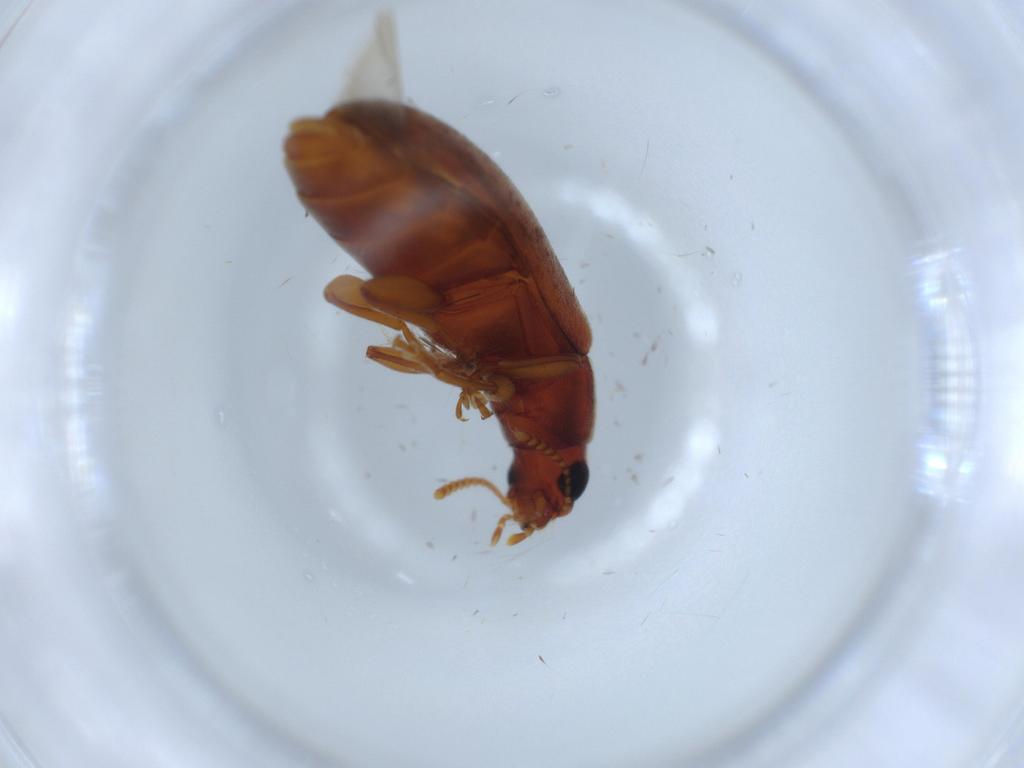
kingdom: Animalia
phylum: Arthropoda
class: Insecta
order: Coleoptera
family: Mycteridae
